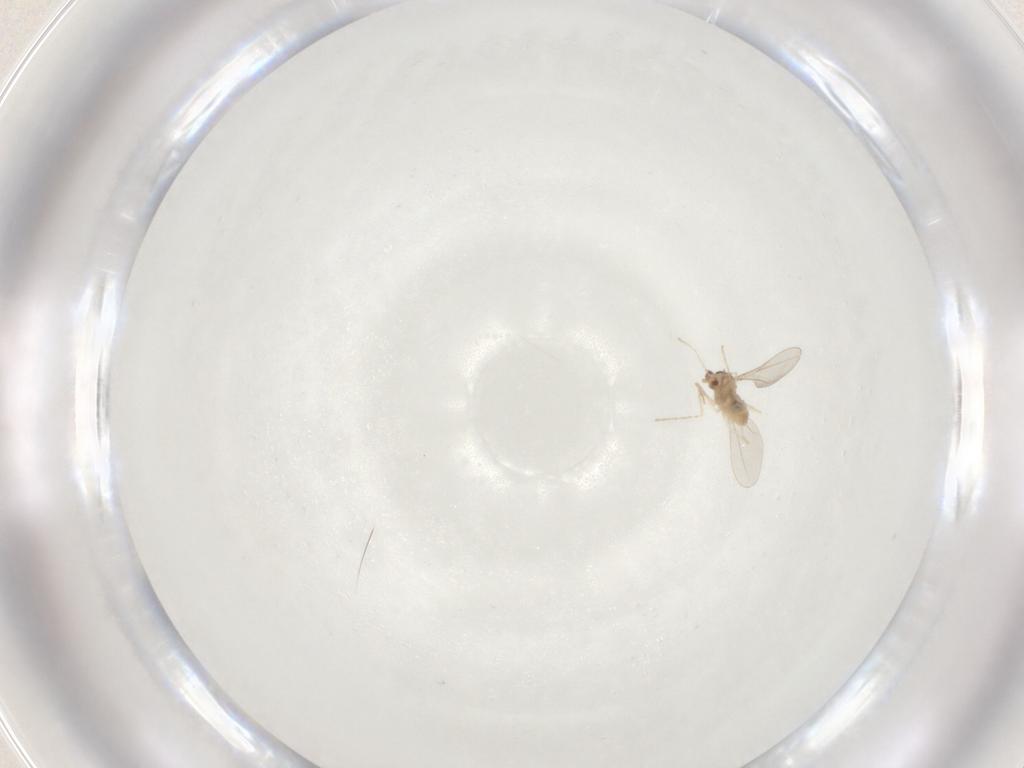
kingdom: Animalia
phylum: Arthropoda
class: Insecta
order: Diptera
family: Cecidomyiidae
